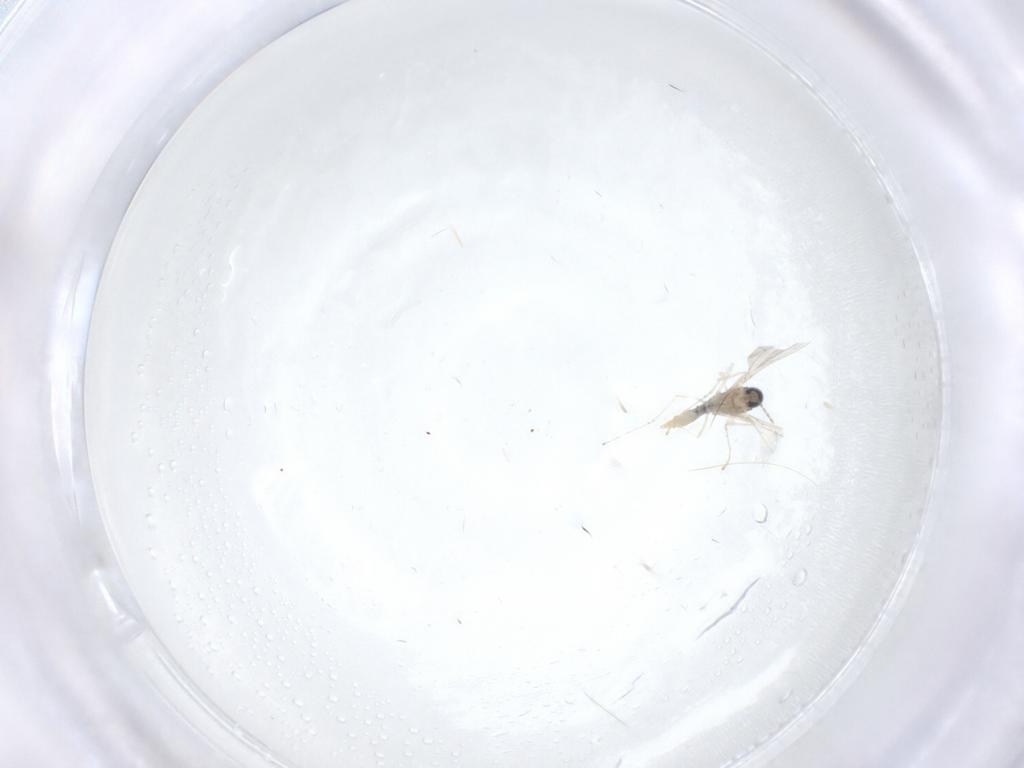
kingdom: Animalia
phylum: Arthropoda
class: Insecta
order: Diptera
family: Cecidomyiidae
